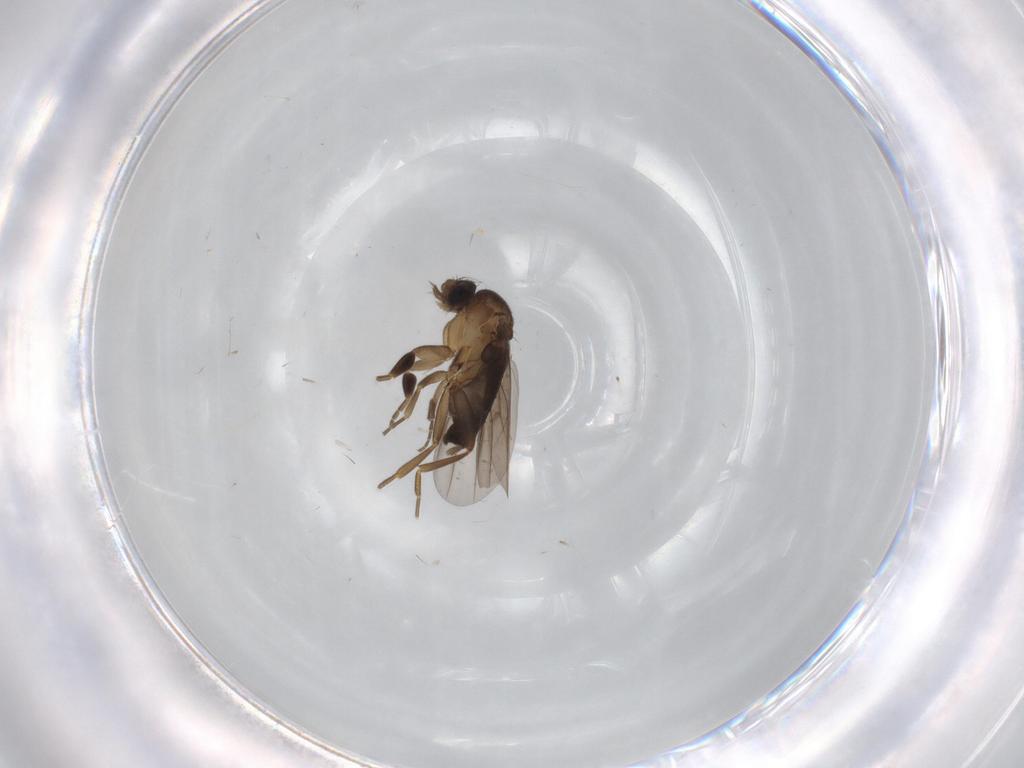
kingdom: Animalia
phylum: Arthropoda
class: Insecta
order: Diptera
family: Phoridae
